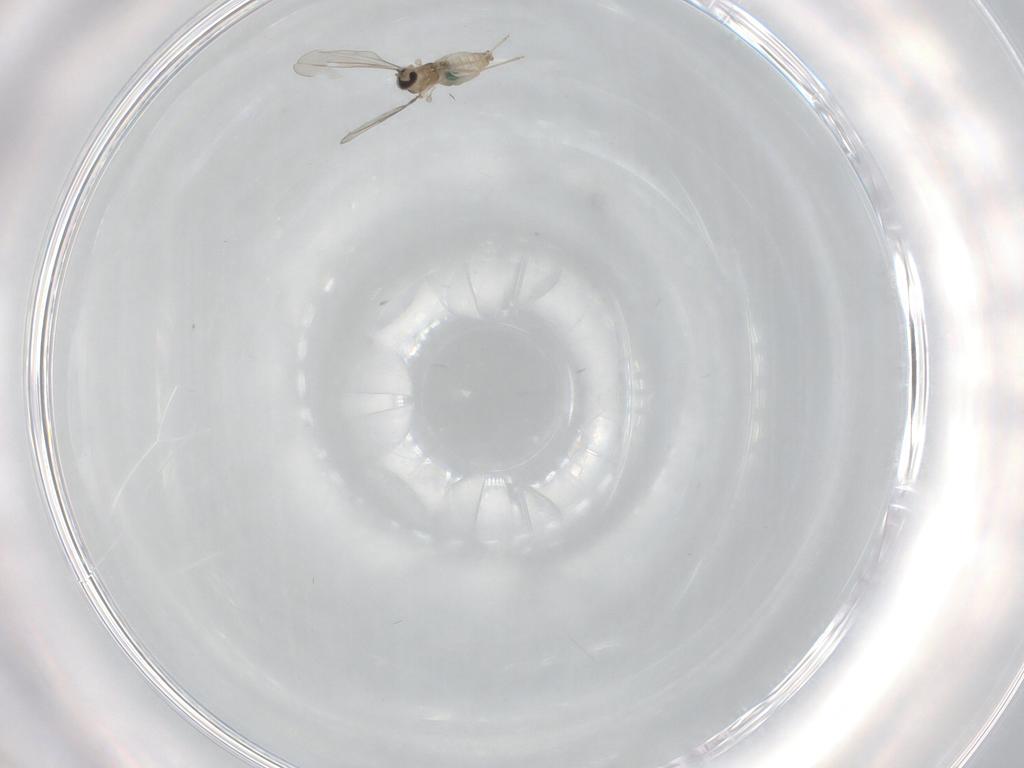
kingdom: Animalia
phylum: Arthropoda
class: Insecta
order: Diptera
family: Cecidomyiidae
